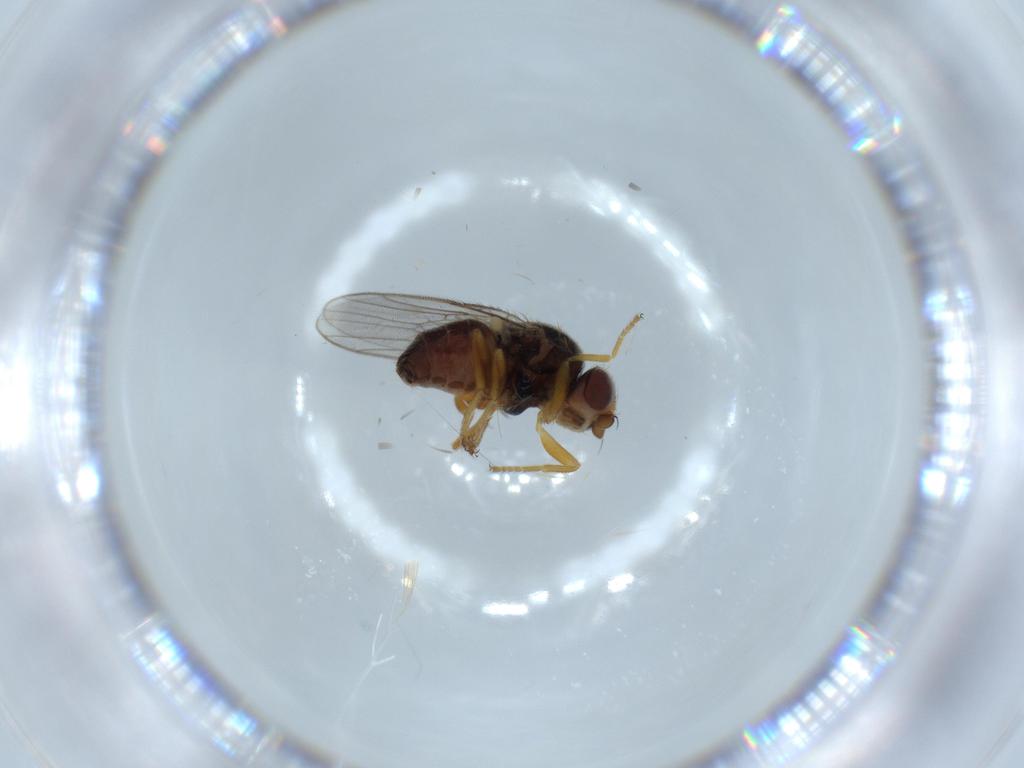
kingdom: Animalia
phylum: Arthropoda
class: Insecta
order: Diptera
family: Chloropidae
